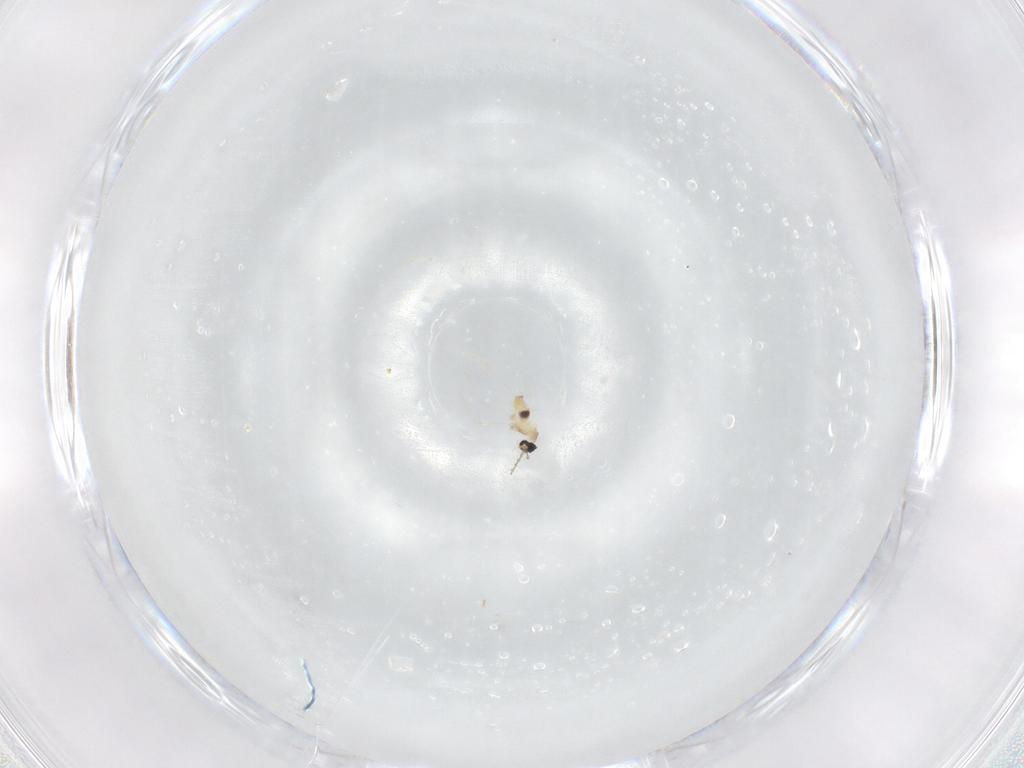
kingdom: Animalia
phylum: Arthropoda
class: Insecta
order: Diptera
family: Cecidomyiidae
